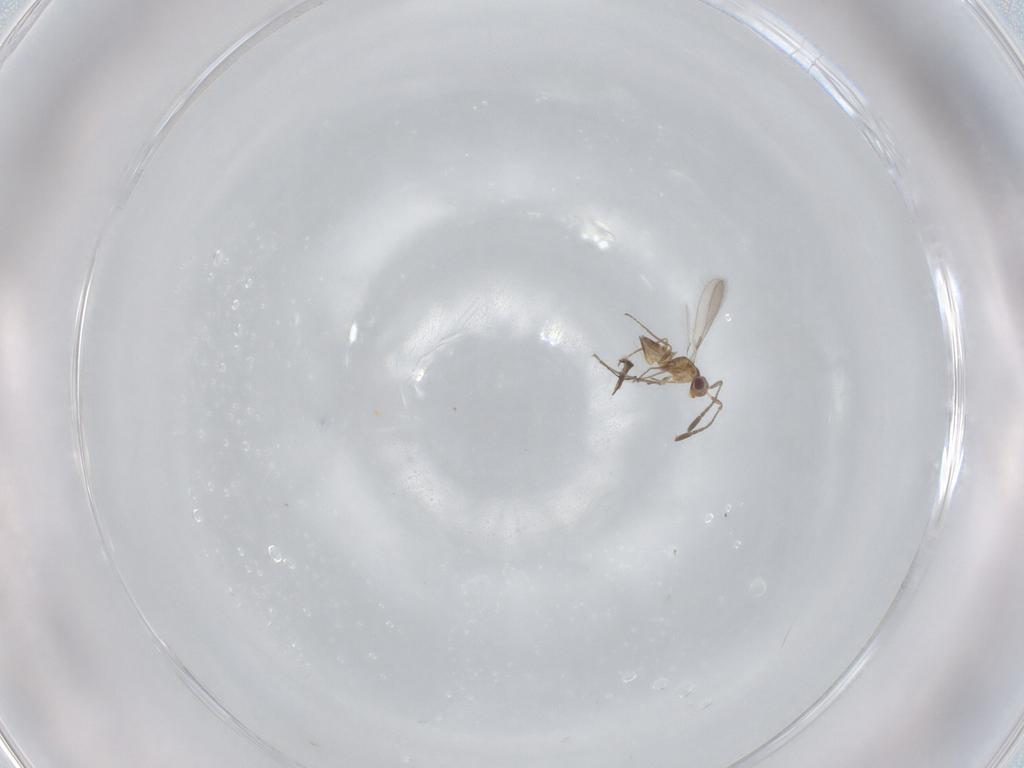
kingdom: Animalia
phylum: Arthropoda
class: Insecta
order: Hymenoptera
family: Mymaridae
